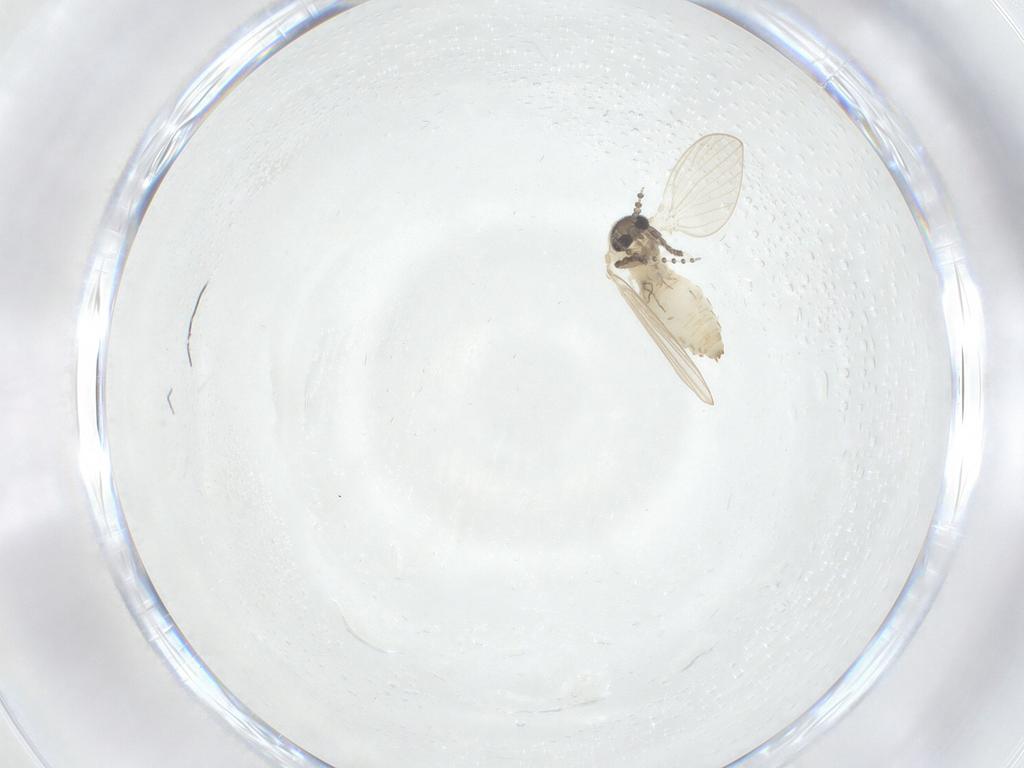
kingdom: Animalia
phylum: Arthropoda
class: Insecta
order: Diptera
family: Psychodidae
